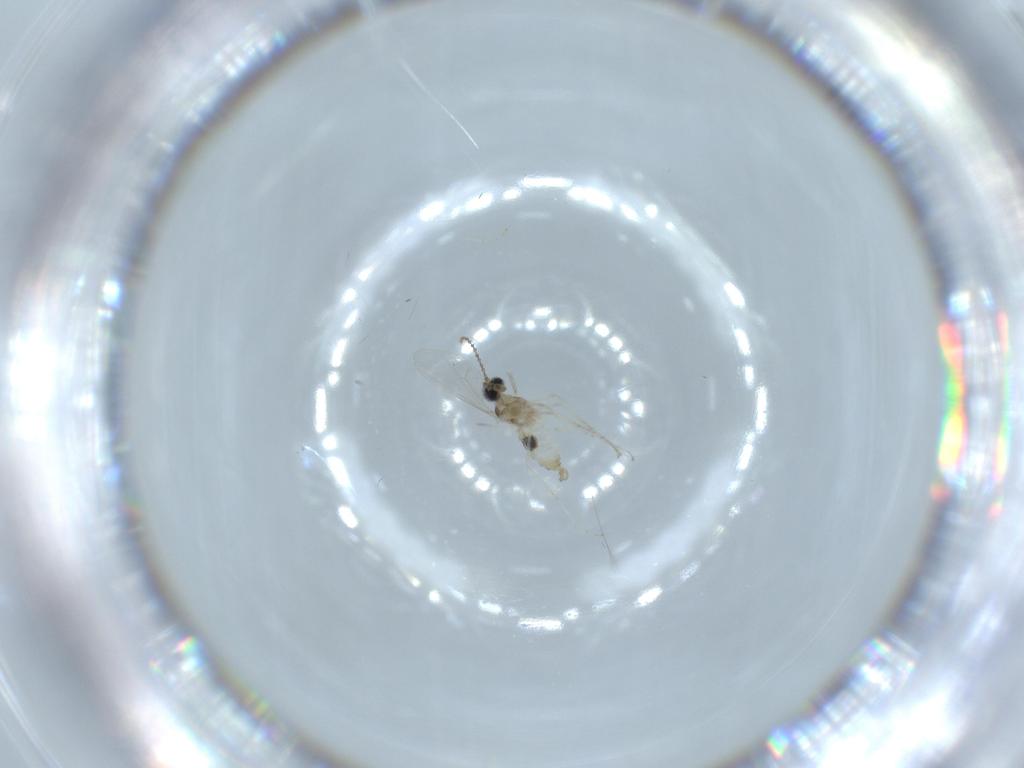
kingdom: Animalia
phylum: Arthropoda
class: Insecta
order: Diptera
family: Cecidomyiidae
